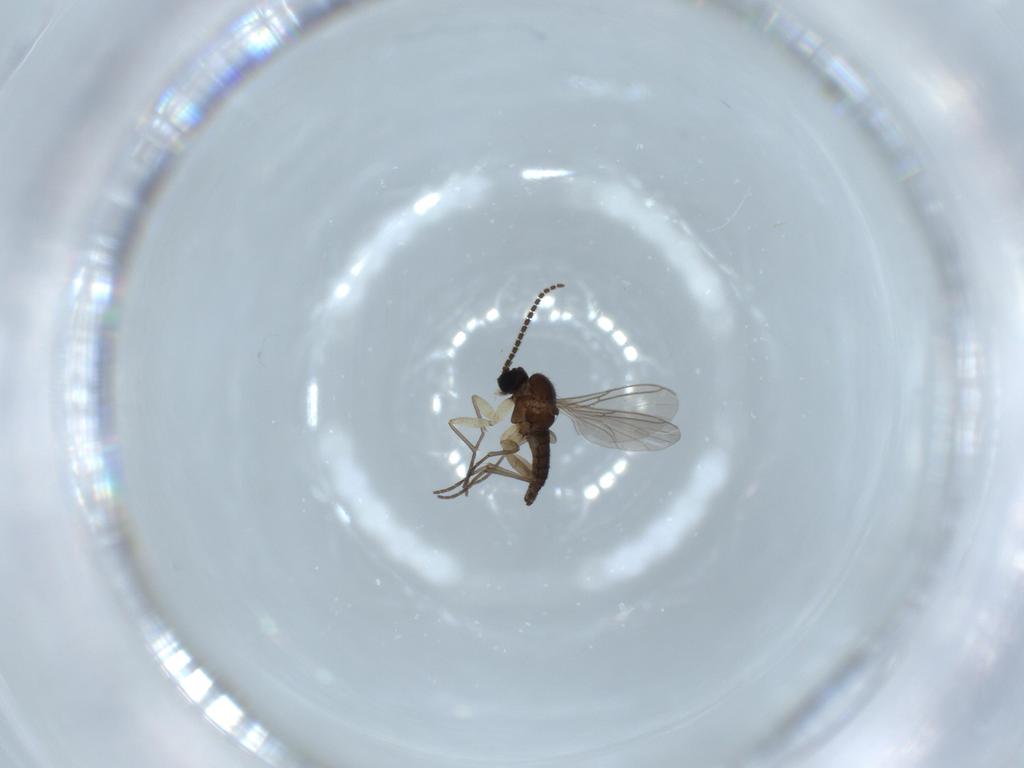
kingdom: Animalia
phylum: Arthropoda
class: Insecta
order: Diptera
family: Sciaridae
